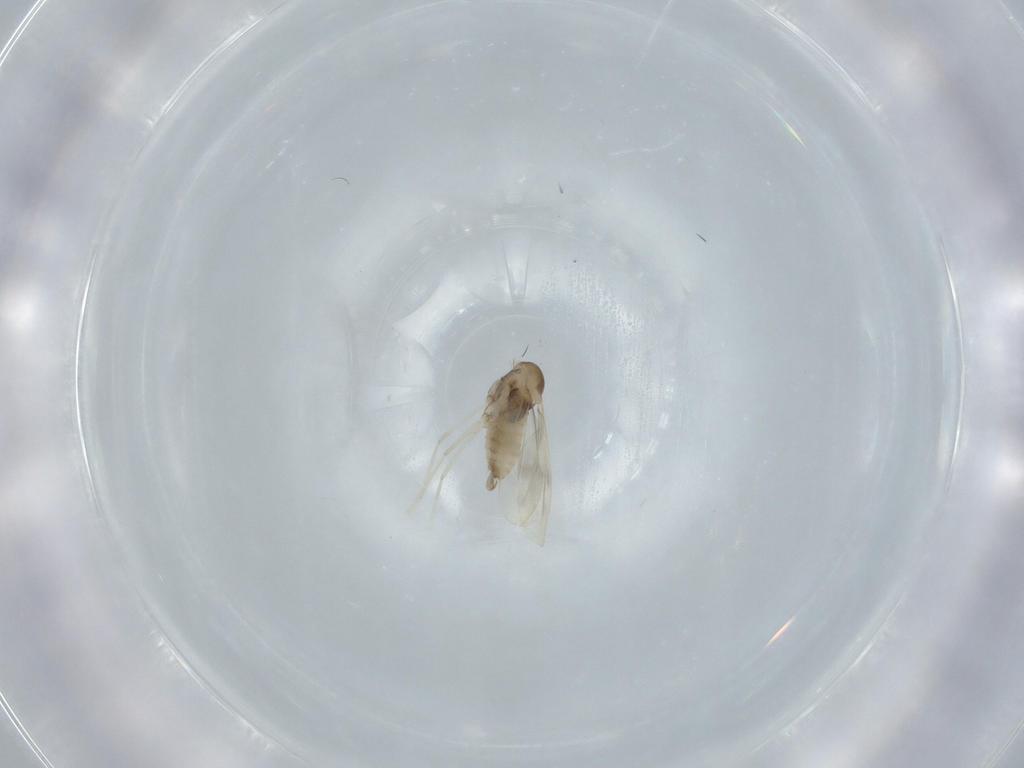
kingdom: Animalia
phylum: Arthropoda
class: Insecta
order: Diptera
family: Cecidomyiidae
